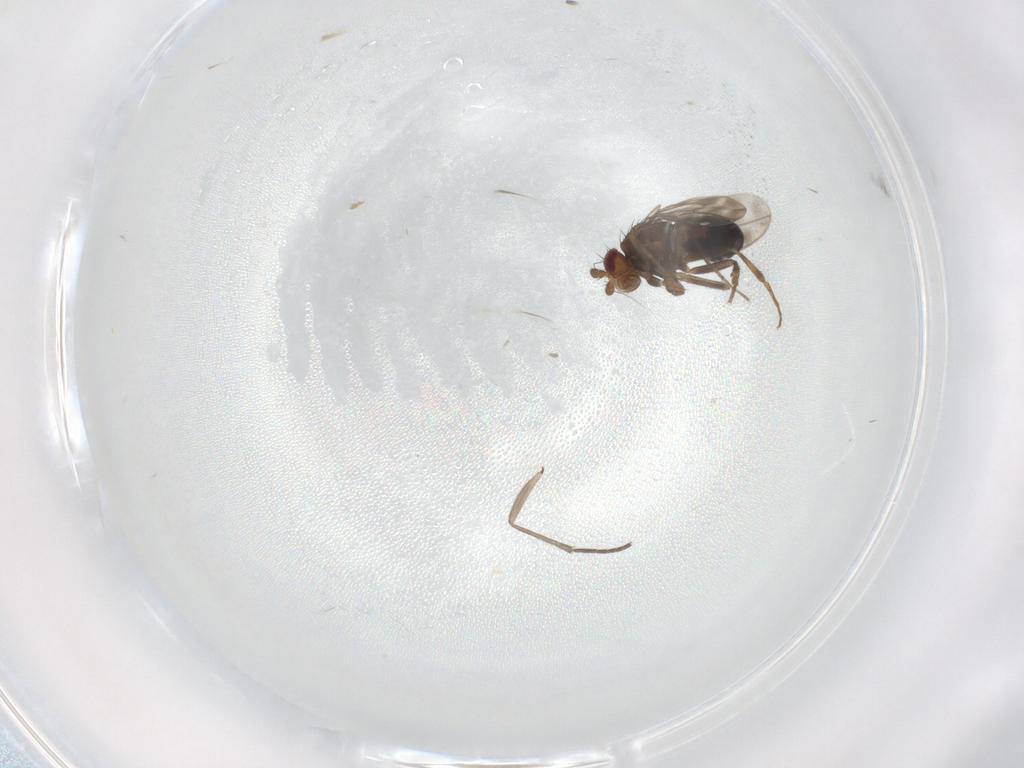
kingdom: Animalia
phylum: Arthropoda
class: Insecta
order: Diptera
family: Sphaeroceridae
